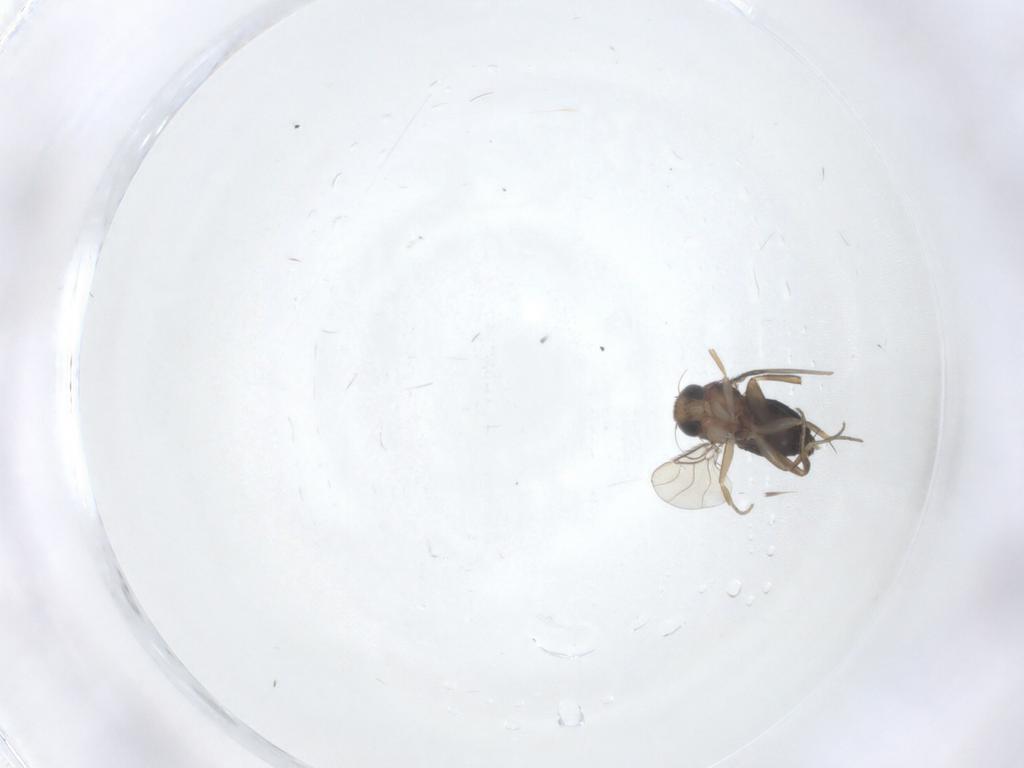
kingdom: Animalia
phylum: Arthropoda
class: Insecta
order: Diptera
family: Phoridae
